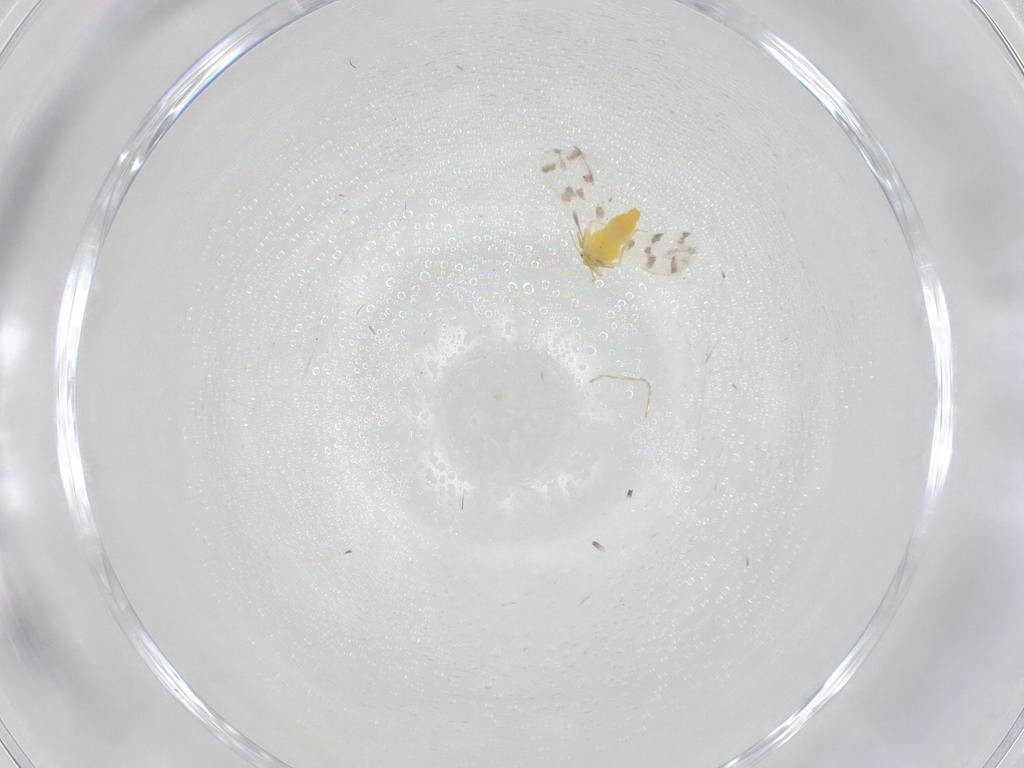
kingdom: Animalia
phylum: Arthropoda
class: Insecta
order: Hemiptera
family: Aleyrodidae
